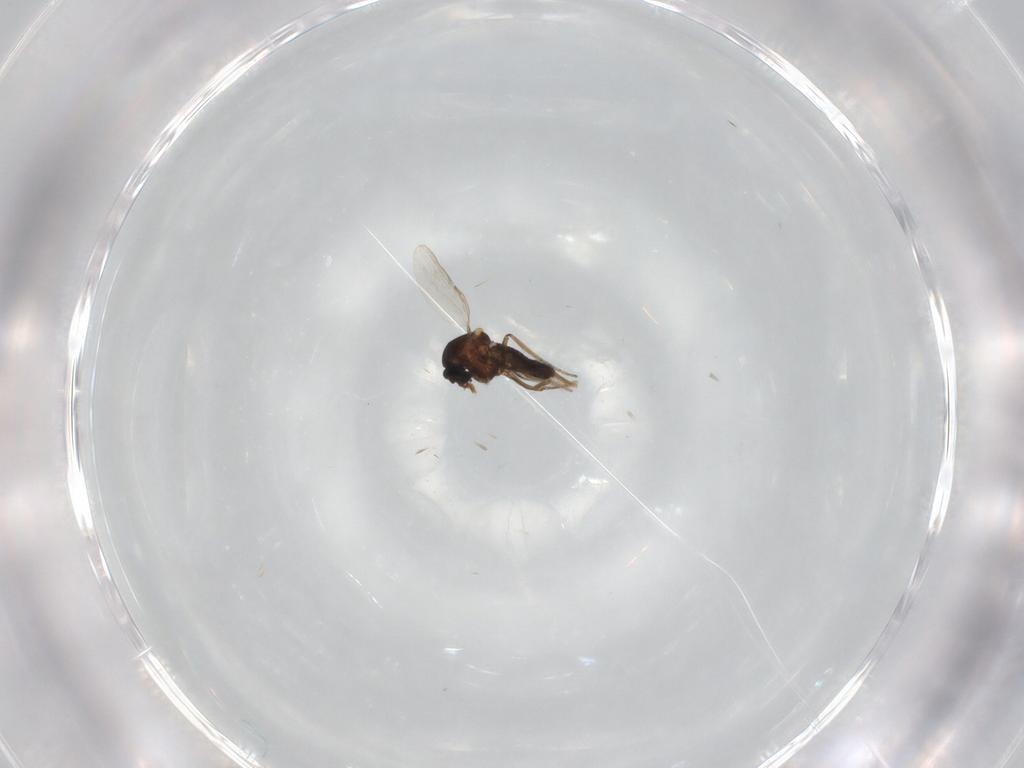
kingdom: Animalia
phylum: Arthropoda
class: Insecta
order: Diptera
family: Ceratopogonidae
